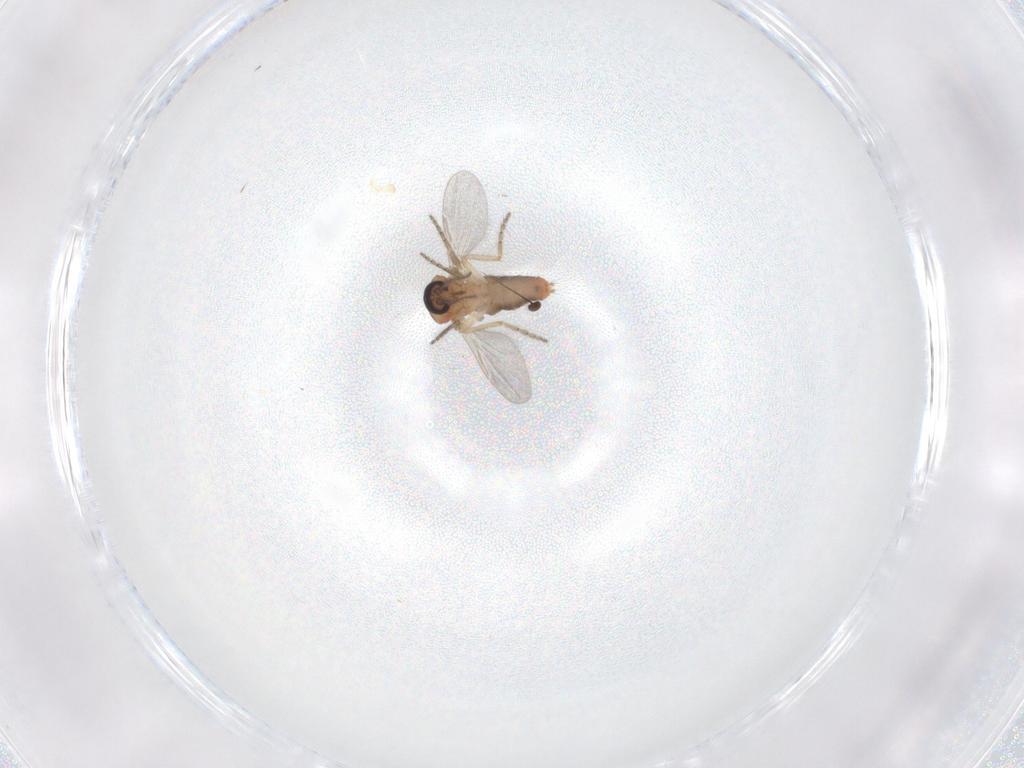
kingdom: Animalia
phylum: Arthropoda
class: Insecta
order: Diptera
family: Ceratopogonidae
